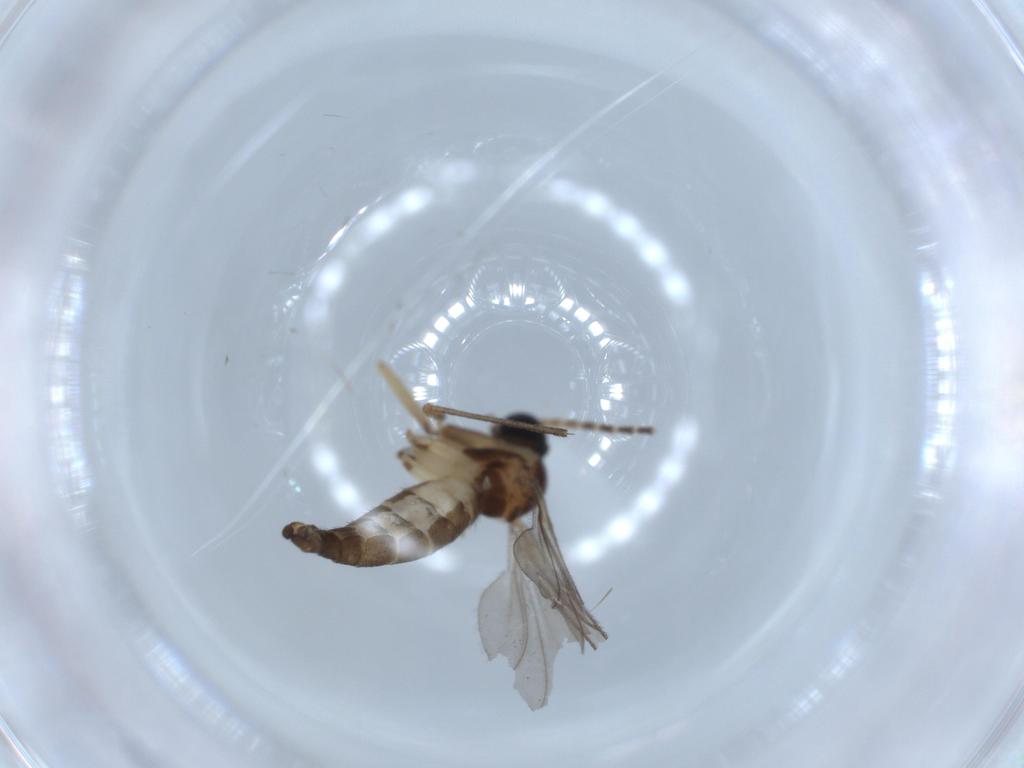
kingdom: Animalia
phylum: Arthropoda
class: Insecta
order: Diptera
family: Sciaridae
